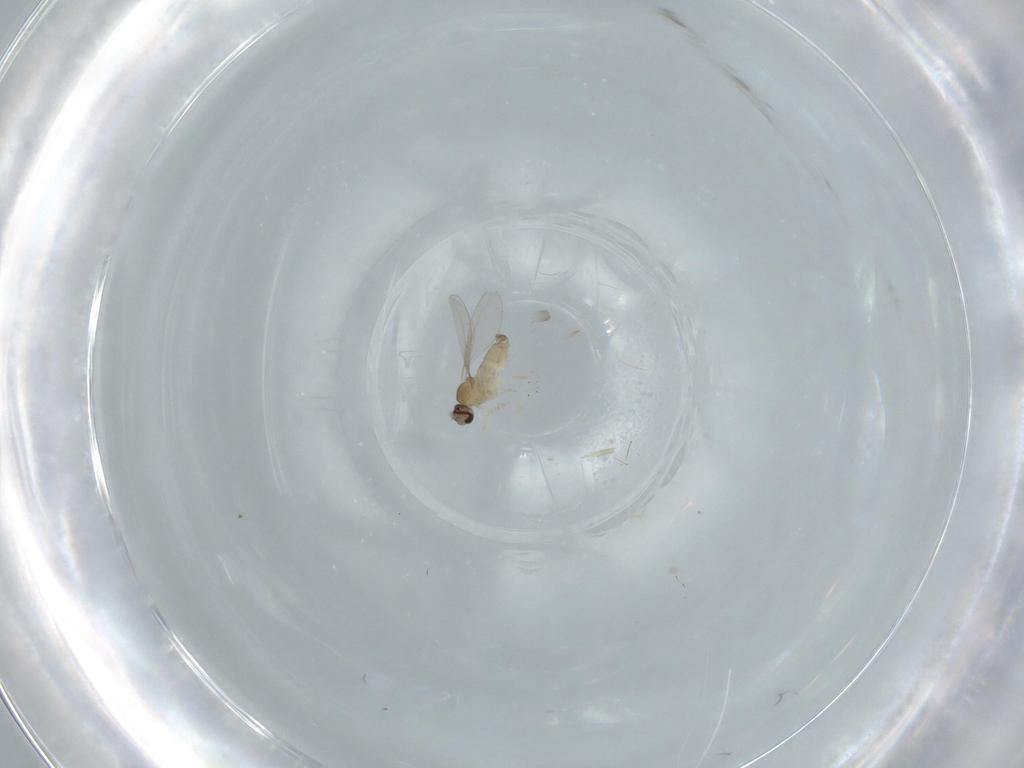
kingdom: Animalia
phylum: Arthropoda
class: Insecta
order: Diptera
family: Cecidomyiidae
